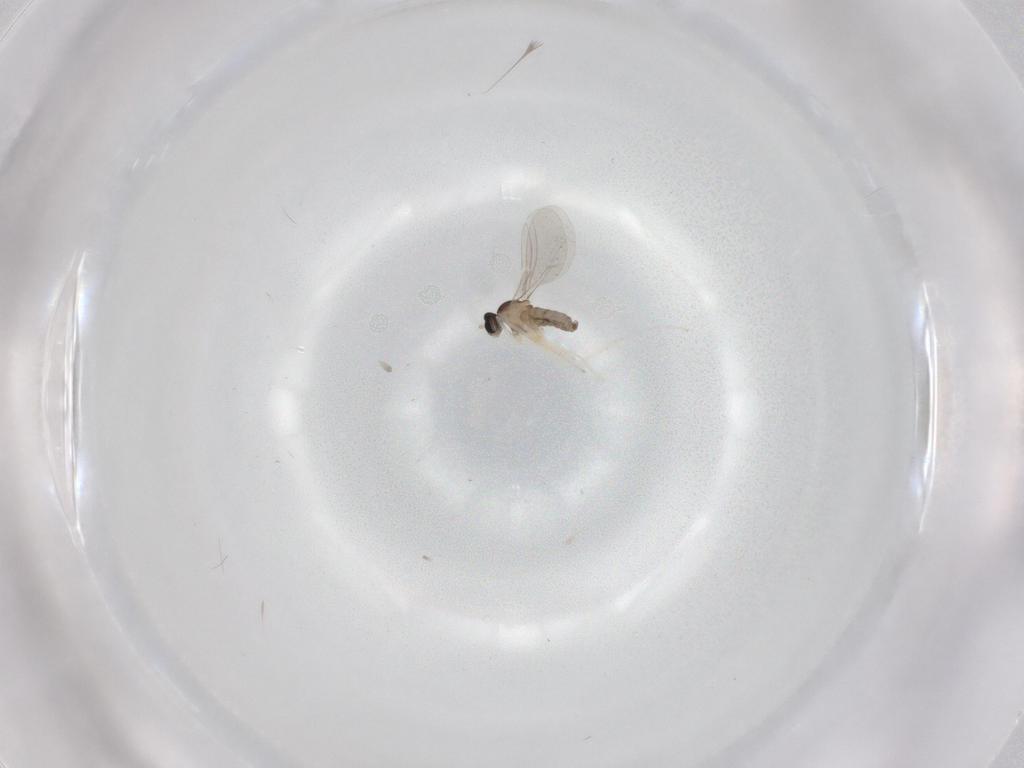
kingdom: Animalia
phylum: Arthropoda
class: Insecta
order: Diptera
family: Cecidomyiidae
